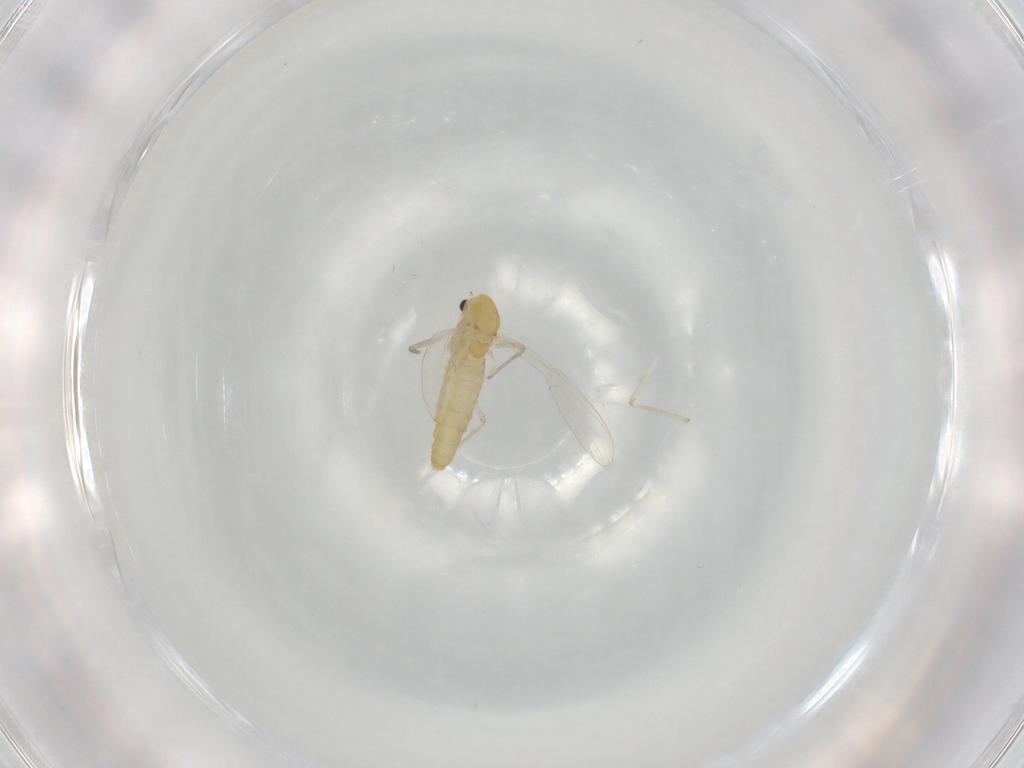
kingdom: Animalia
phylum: Arthropoda
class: Insecta
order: Diptera
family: Chironomidae
